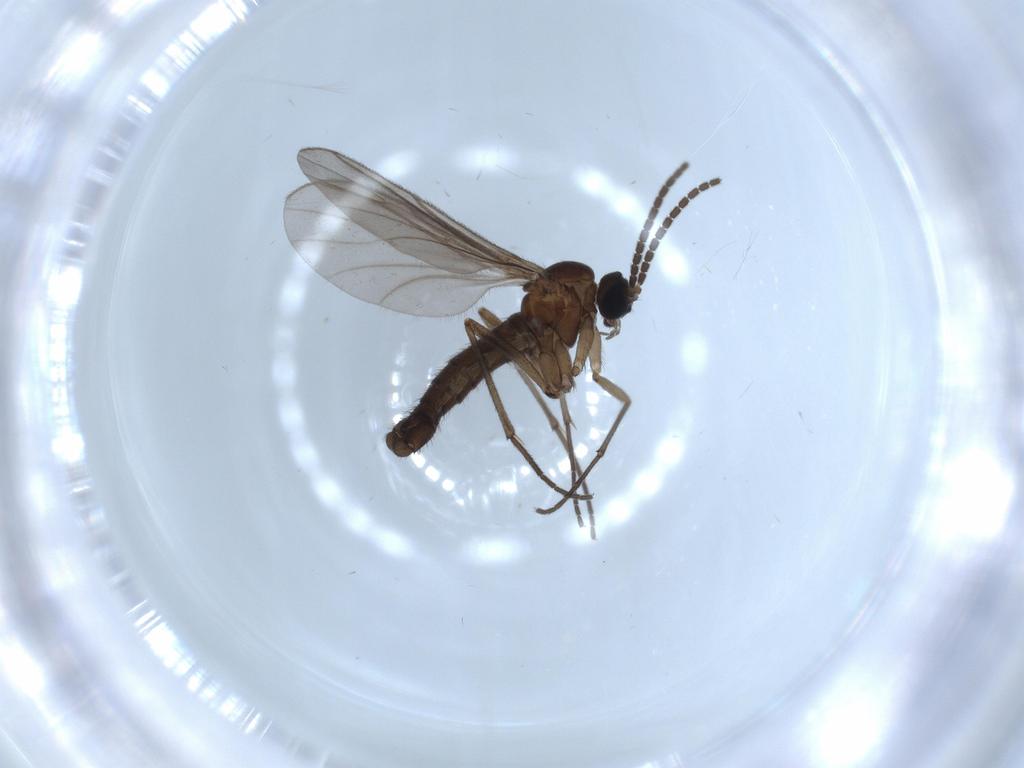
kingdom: Animalia
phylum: Arthropoda
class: Insecta
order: Diptera
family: Sciaridae
